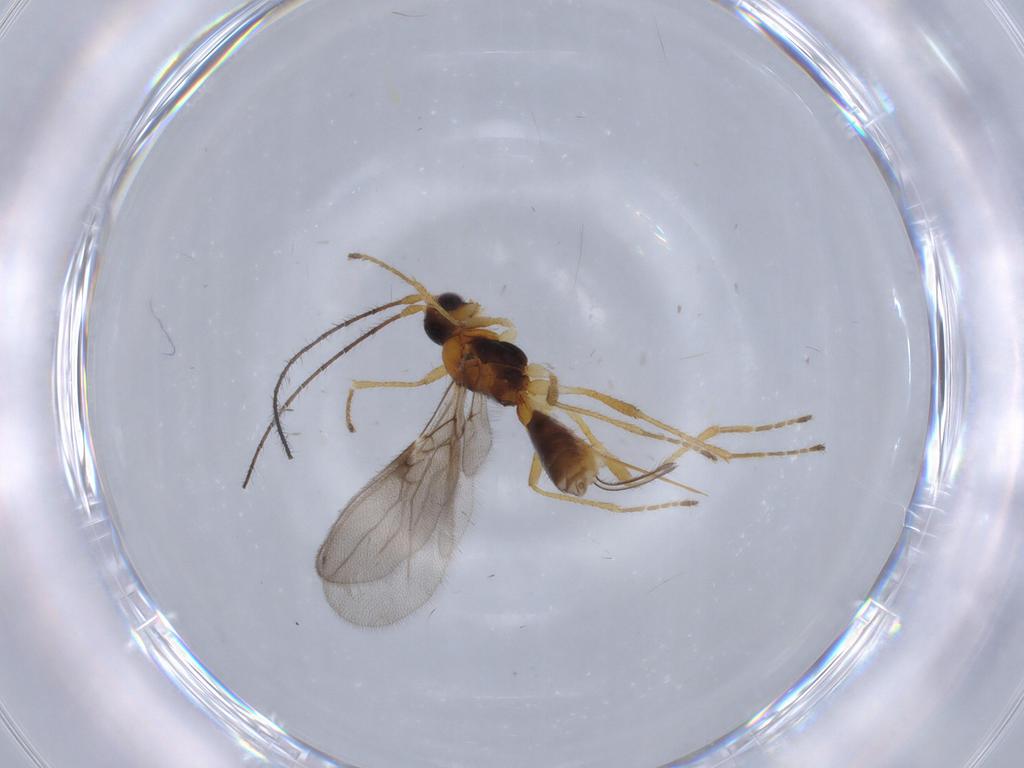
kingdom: Animalia
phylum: Arthropoda
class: Insecta
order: Hymenoptera
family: Braconidae
